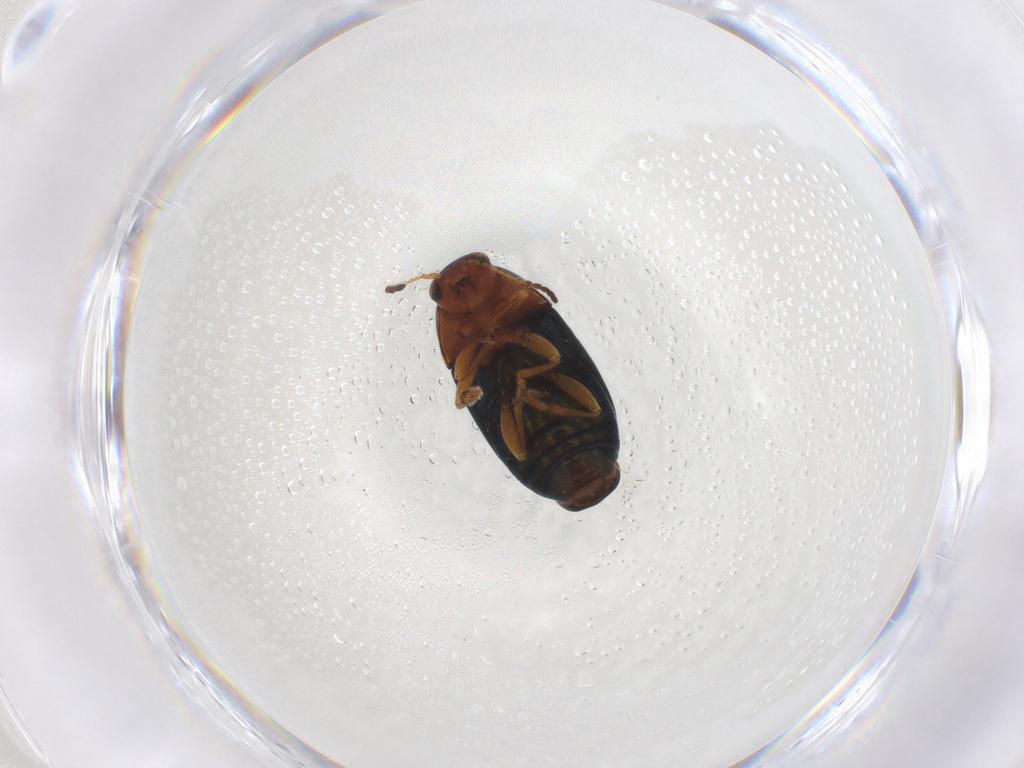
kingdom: Animalia
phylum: Arthropoda
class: Insecta
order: Coleoptera
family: Chrysomelidae
